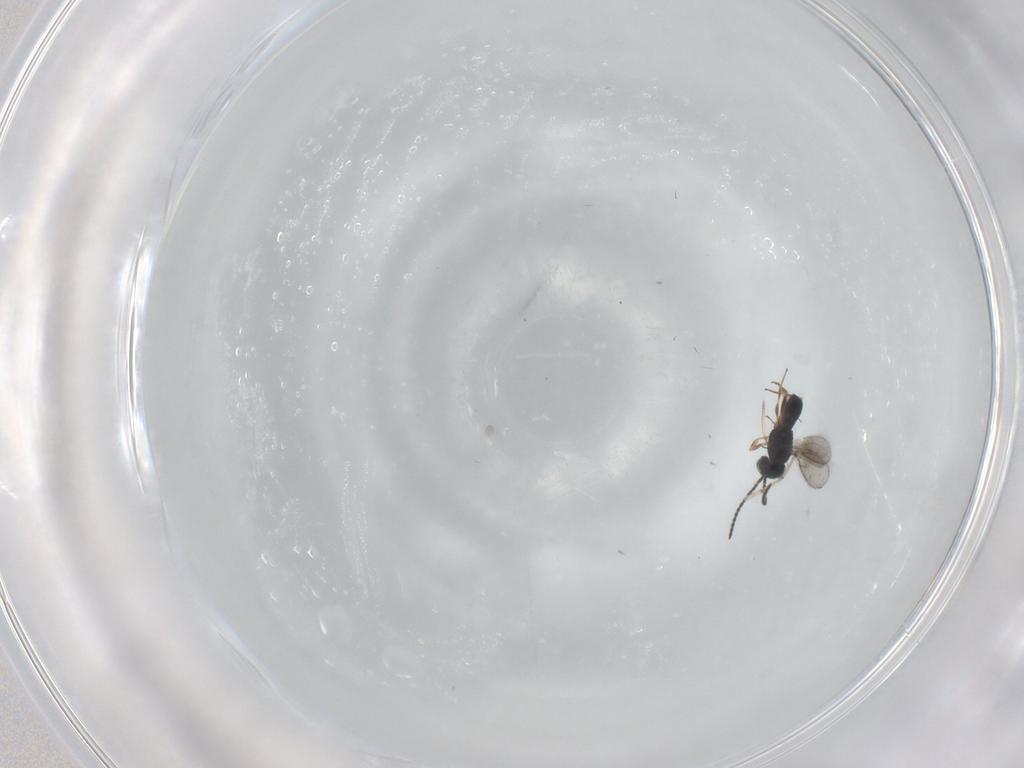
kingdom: Animalia
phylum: Arthropoda
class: Insecta
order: Hymenoptera
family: Scelionidae
